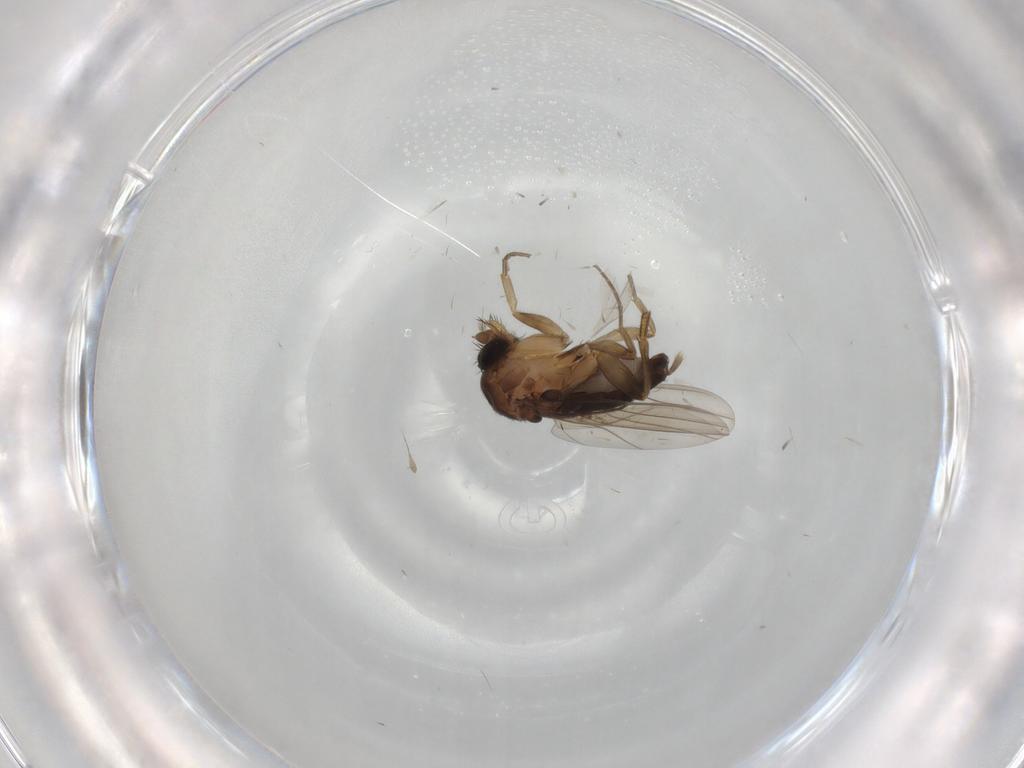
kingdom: Animalia
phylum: Arthropoda
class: Insecta
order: Diptera
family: Phoridae
